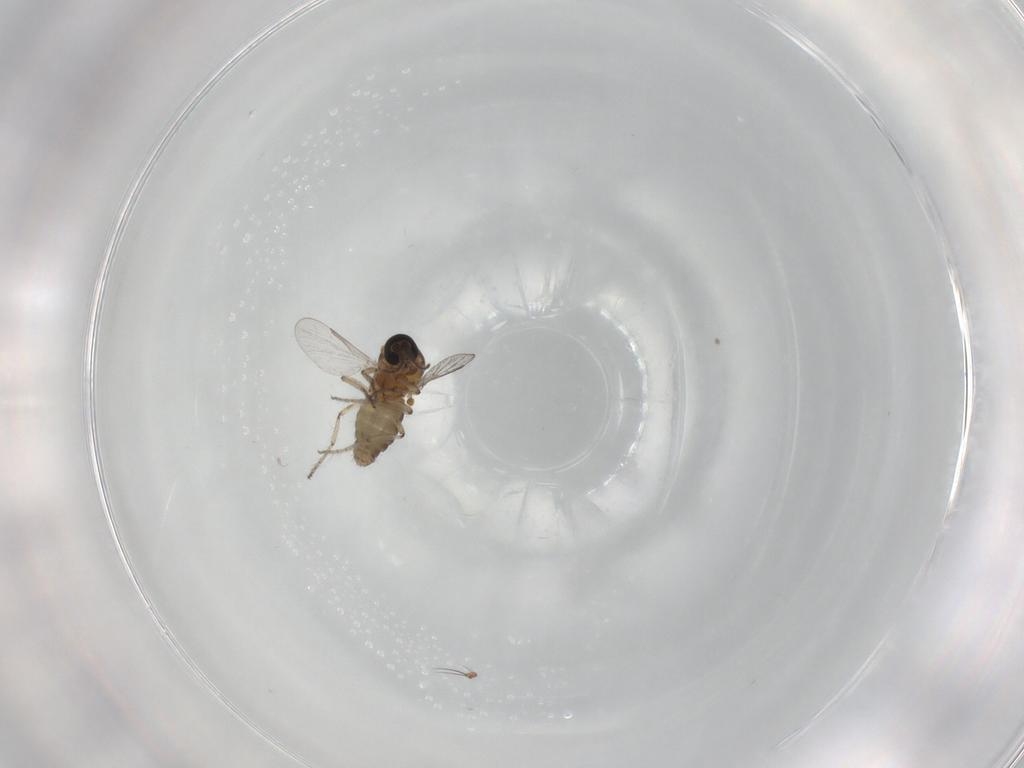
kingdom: Animalia
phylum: Arthropoda
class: Insecta
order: Diptera
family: Ceratopogonidae
